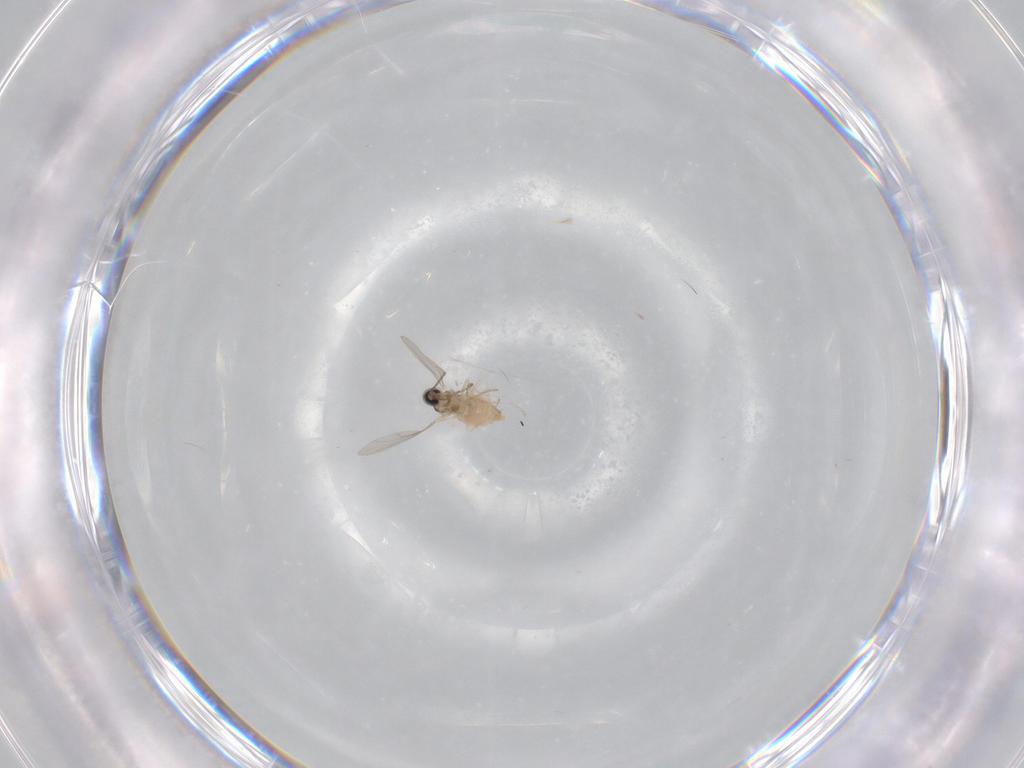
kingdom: Animalia
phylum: Arthropoda
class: Insecta
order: Diptera
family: Cecidomyiidae
